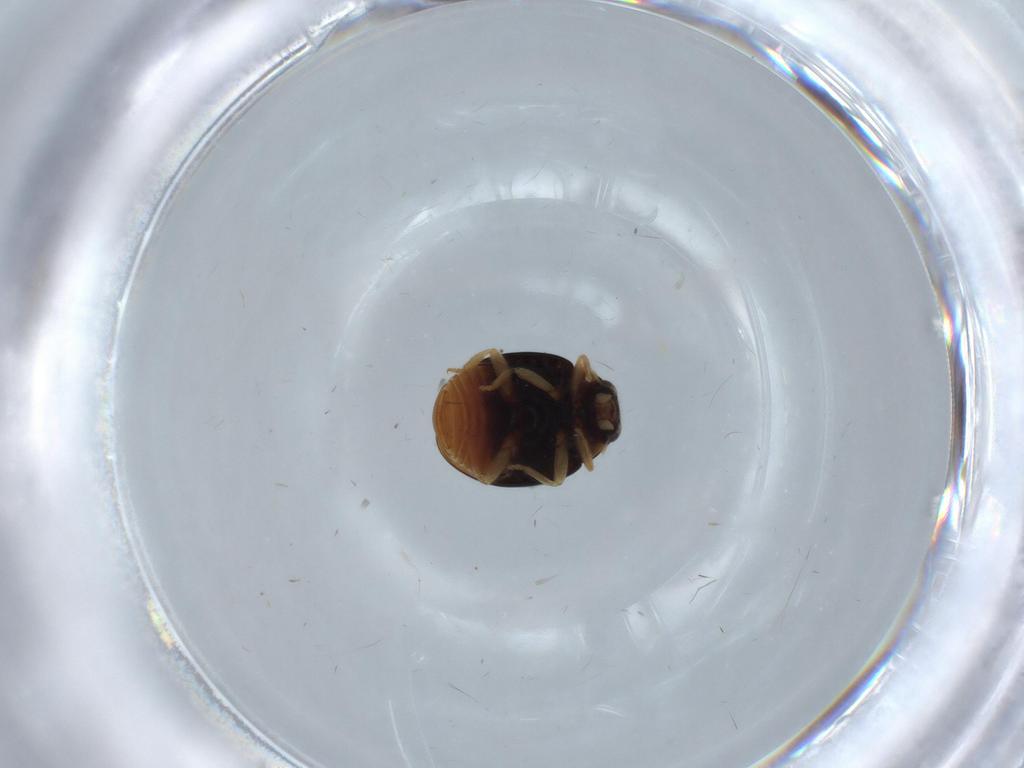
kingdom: Animalia
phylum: Arthropoda
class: Insecta
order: Coleoptera
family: Coccinellidae
